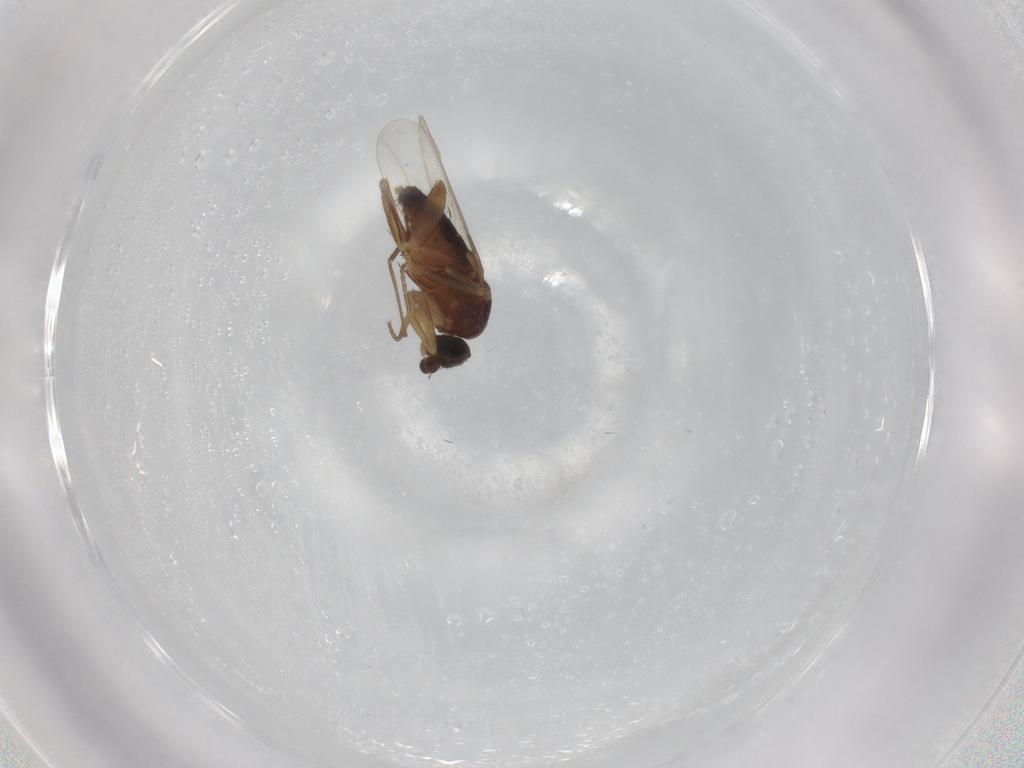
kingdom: Animalia
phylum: Arthropoda
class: Insecta
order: Diptera
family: Phoridae
